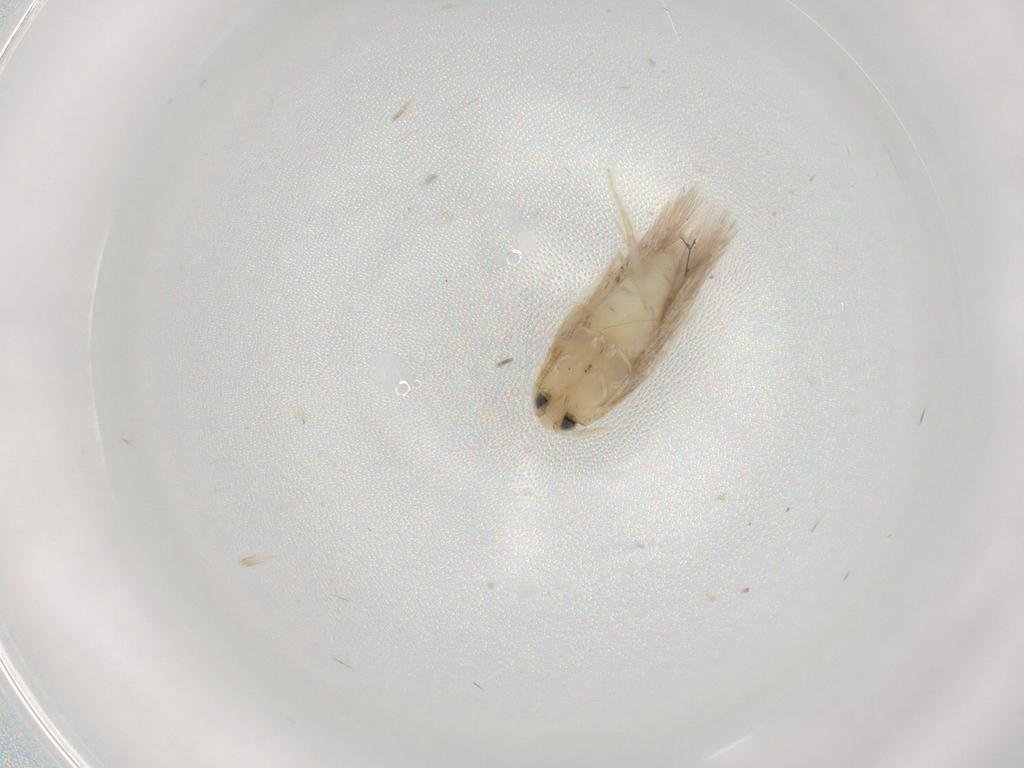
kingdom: Animalia
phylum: Arthropoda
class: Insecta
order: Lepidoptera
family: Opostegidae
